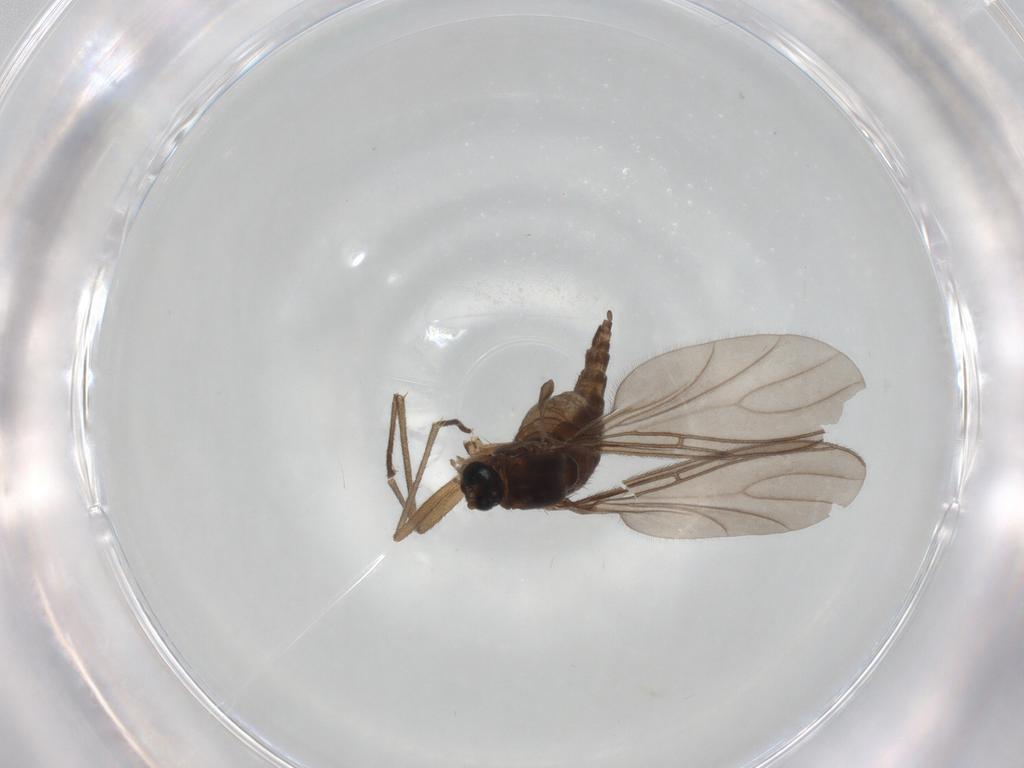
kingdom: Animalia
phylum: Arthropoda
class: Insecta
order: Diptera
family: Sciaridae
